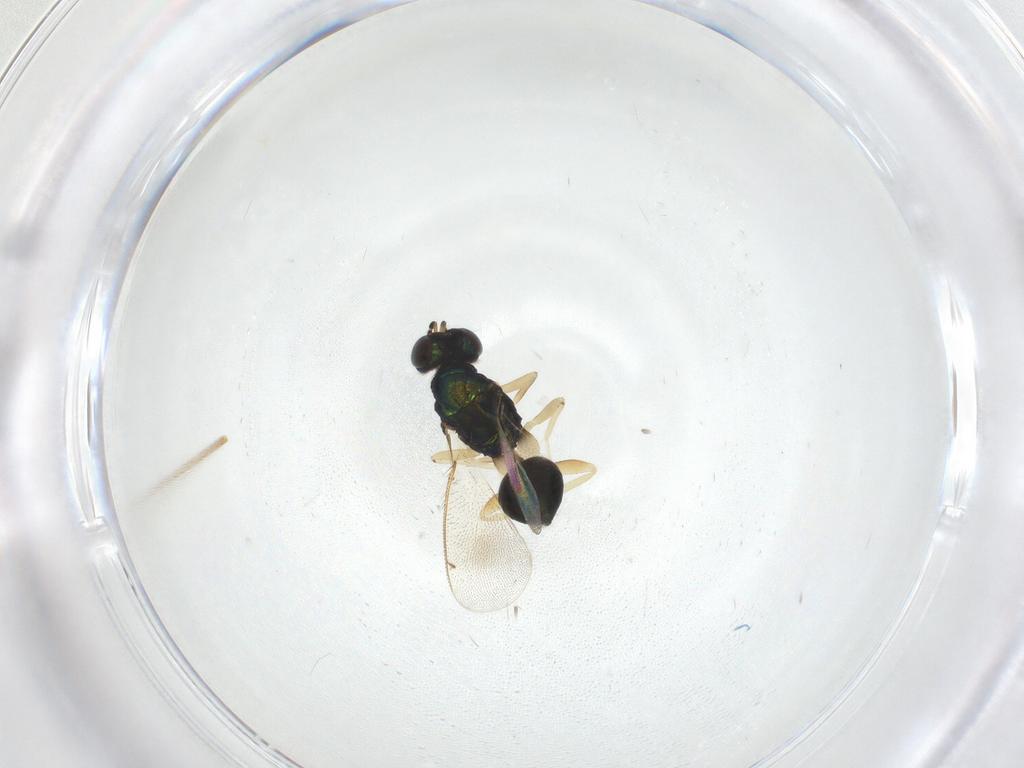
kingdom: Animalia
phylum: Arthropoda
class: Insecta
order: Hymenoptera
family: Eulophidae
